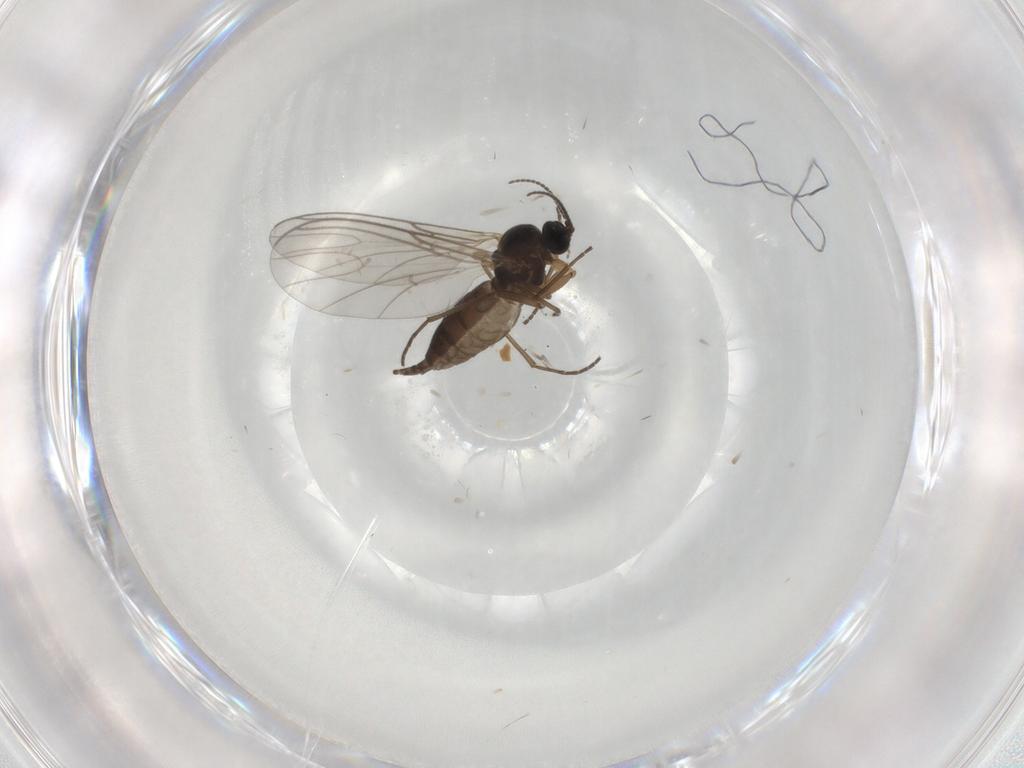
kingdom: Animalia
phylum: Arthropoda
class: Insecta
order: Diptera
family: Sciaridae
